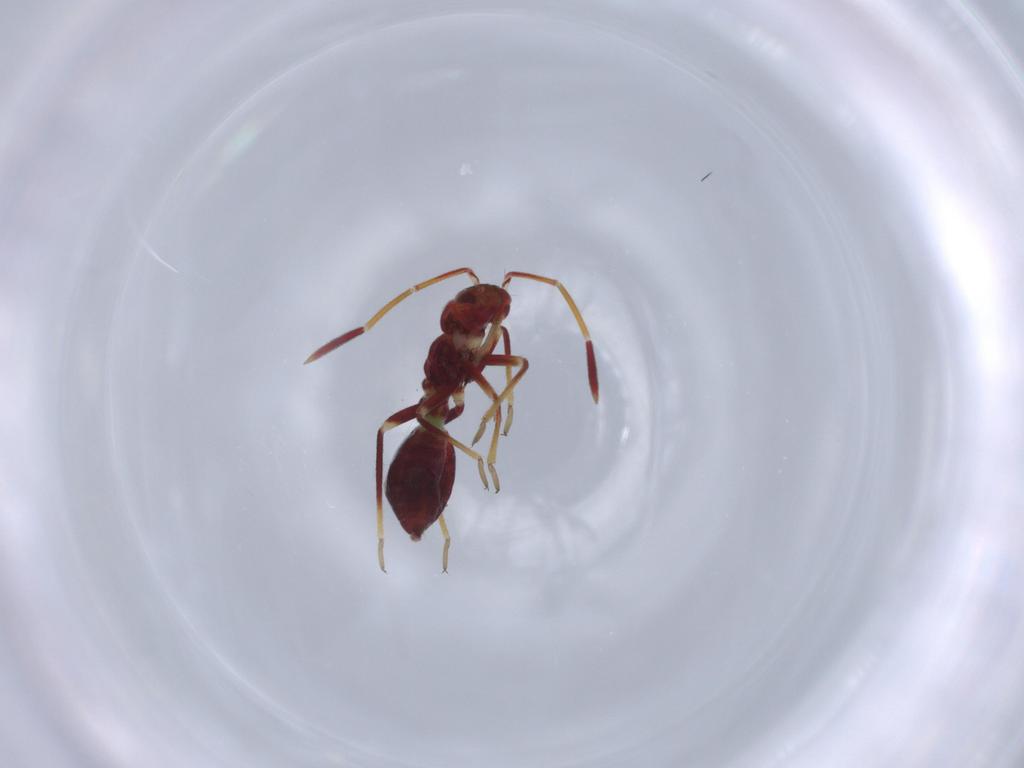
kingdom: Animalia
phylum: Arthropoda
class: Insecta
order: Hemiptera
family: Miridae
